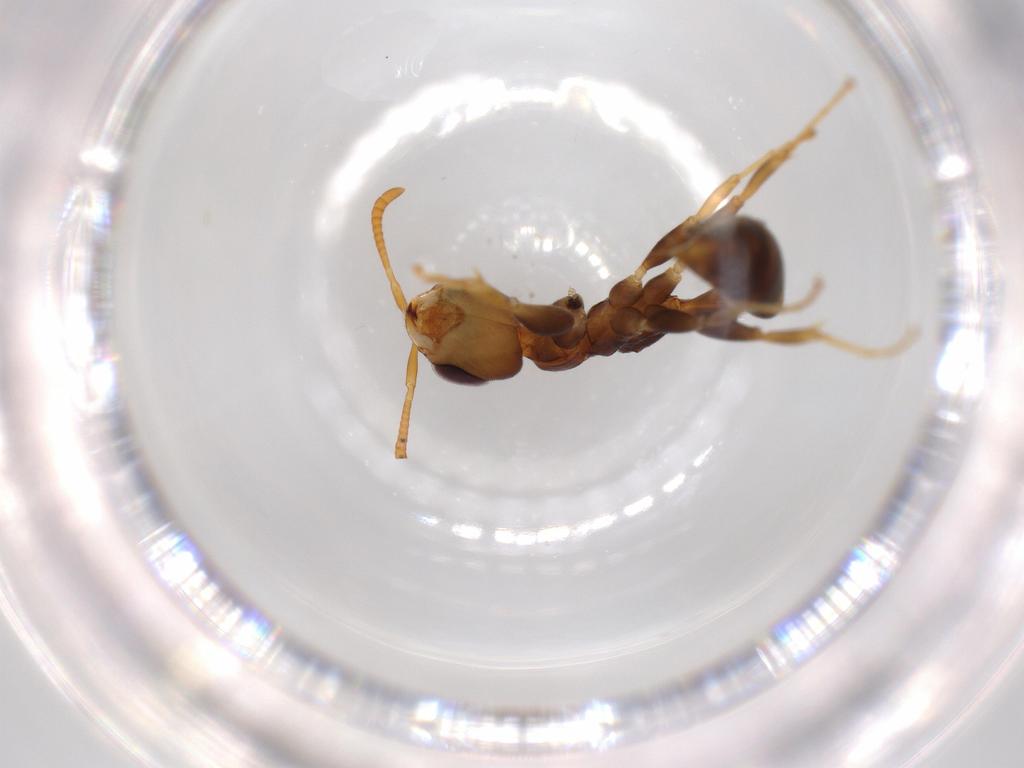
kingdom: Animalia
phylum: Arthropoda
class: Insecta
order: Hymenoptera
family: Formicidae
